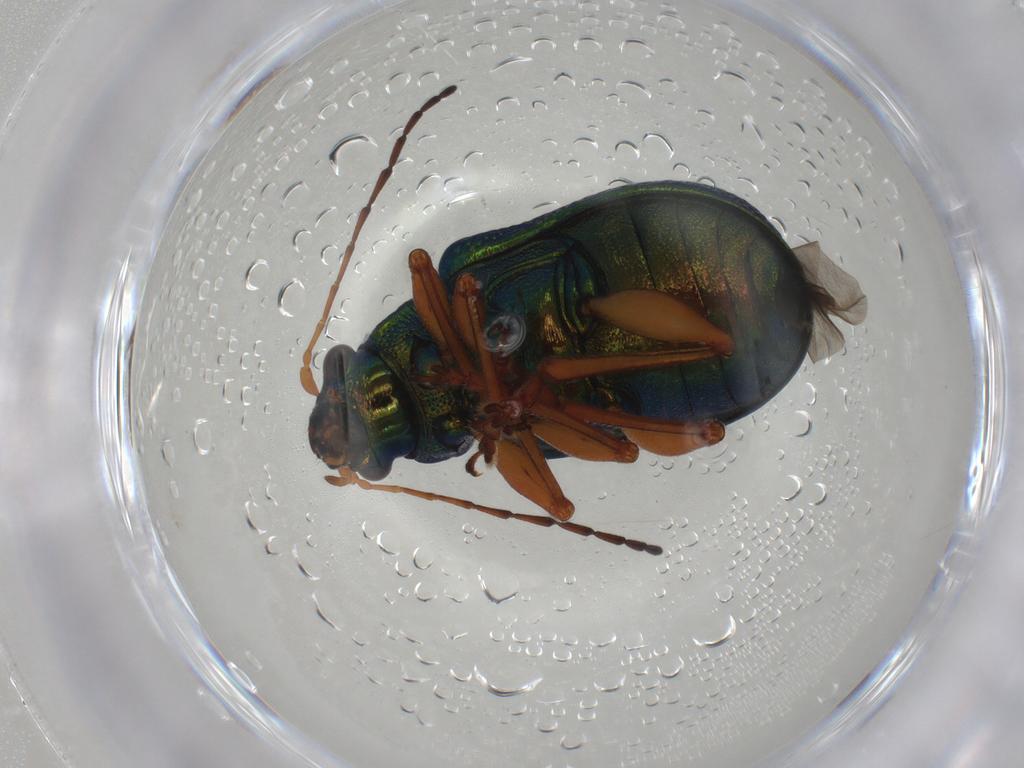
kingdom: Animalia
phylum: Arthropoda
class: Insecta
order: Coleoptera
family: Chrysomelidae
